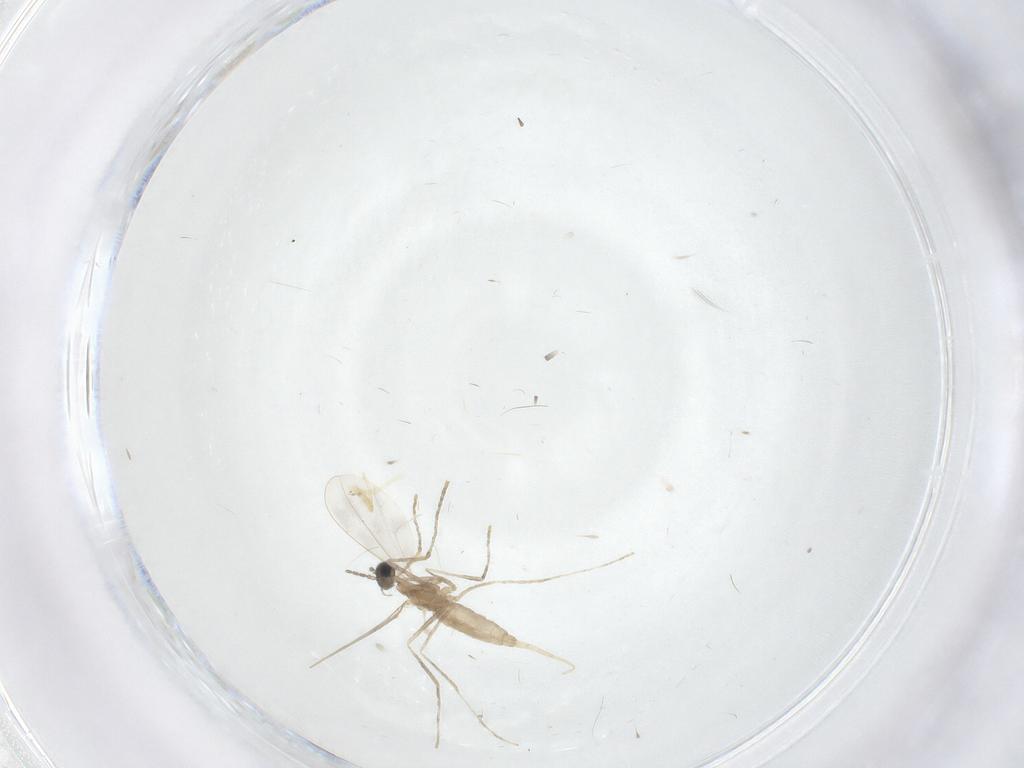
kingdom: Animalia
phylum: Arthropoda
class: Insecta
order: Diptera
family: Cecidomyiidae
